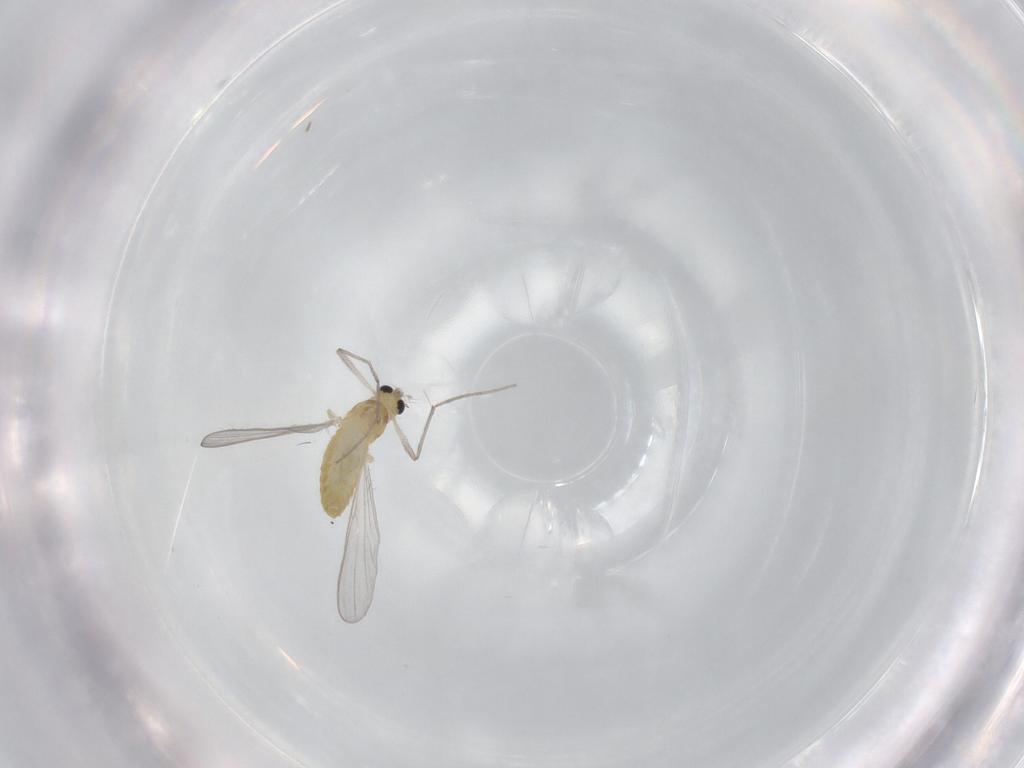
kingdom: Animalia
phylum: Arthropoda
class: Insecta
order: Diptera
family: Chironomidae
